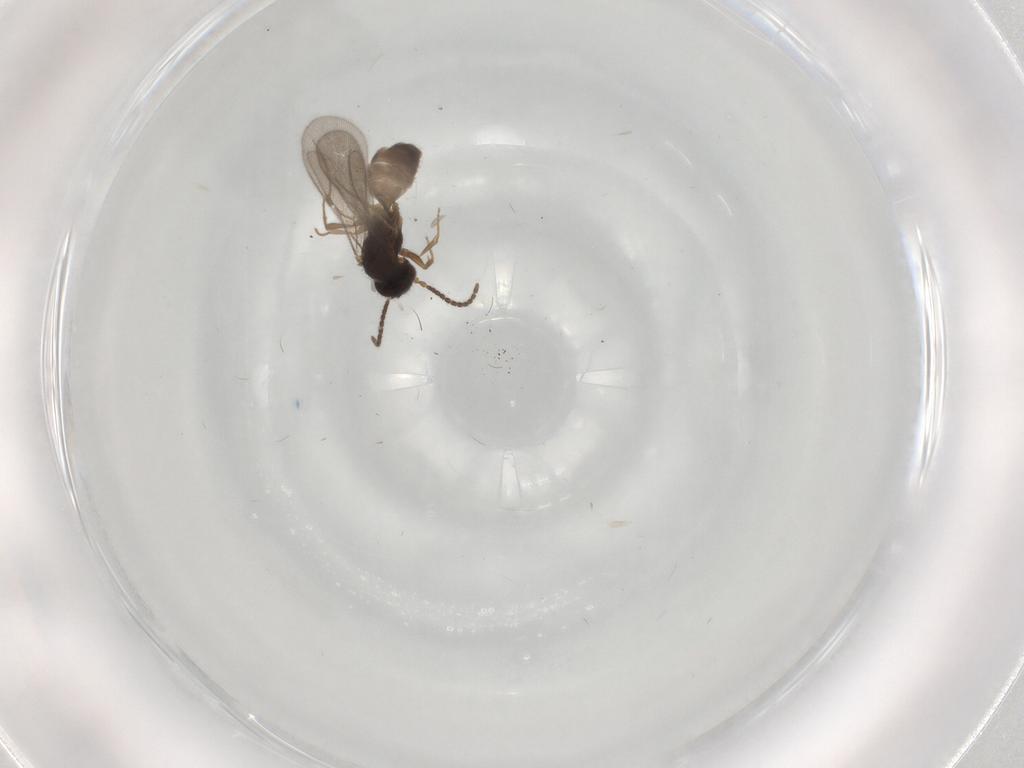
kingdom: Animalia
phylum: Arthropoda
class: Insecta
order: Hymenoptera
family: Bethylidae
